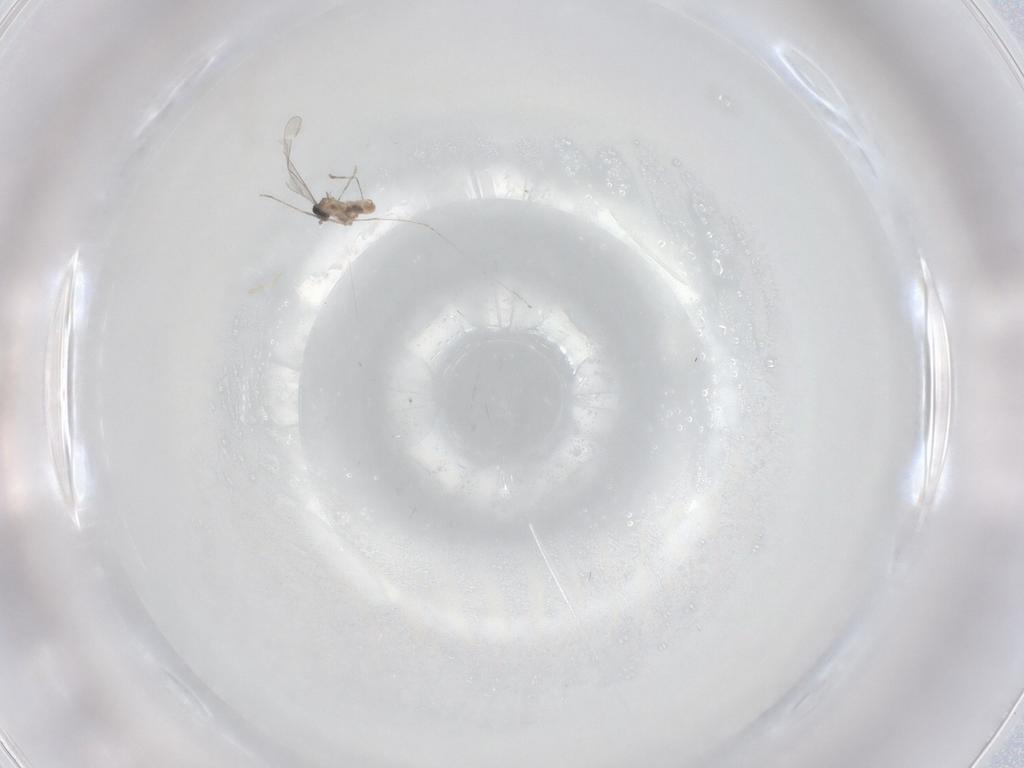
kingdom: Animalia
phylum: Arthropoda
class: Insecta
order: Diptera
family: Cecidomyiidae
